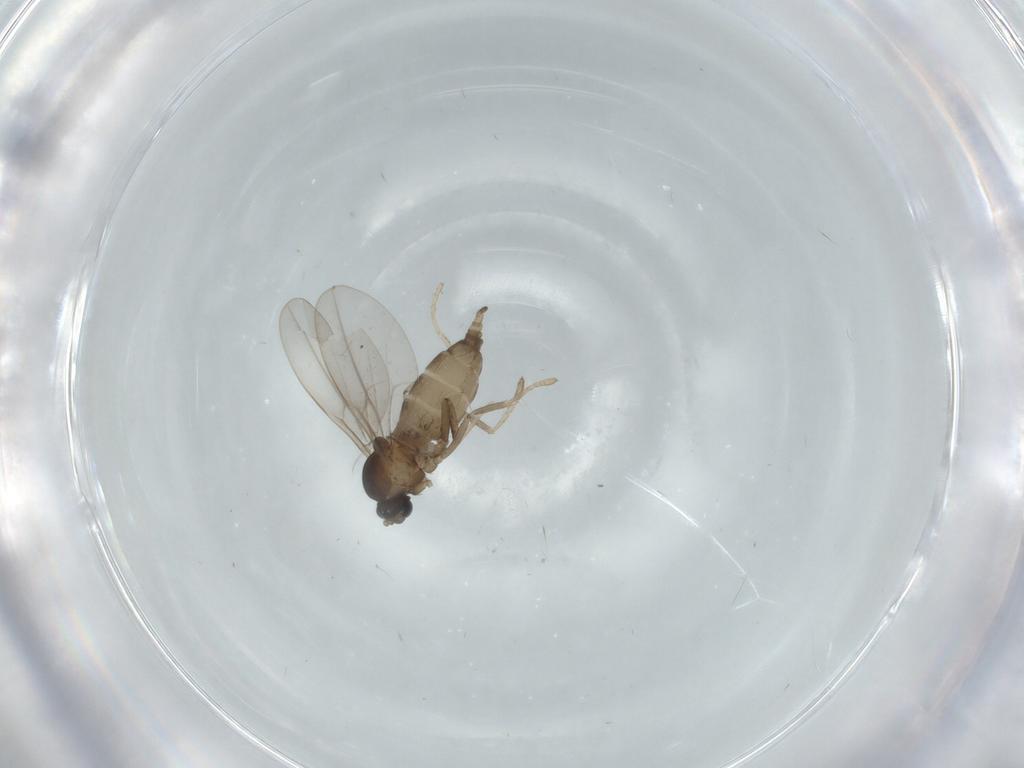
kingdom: Animalia
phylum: Arthropoda
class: Insecta
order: Diptera
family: Cecidomyiidae
